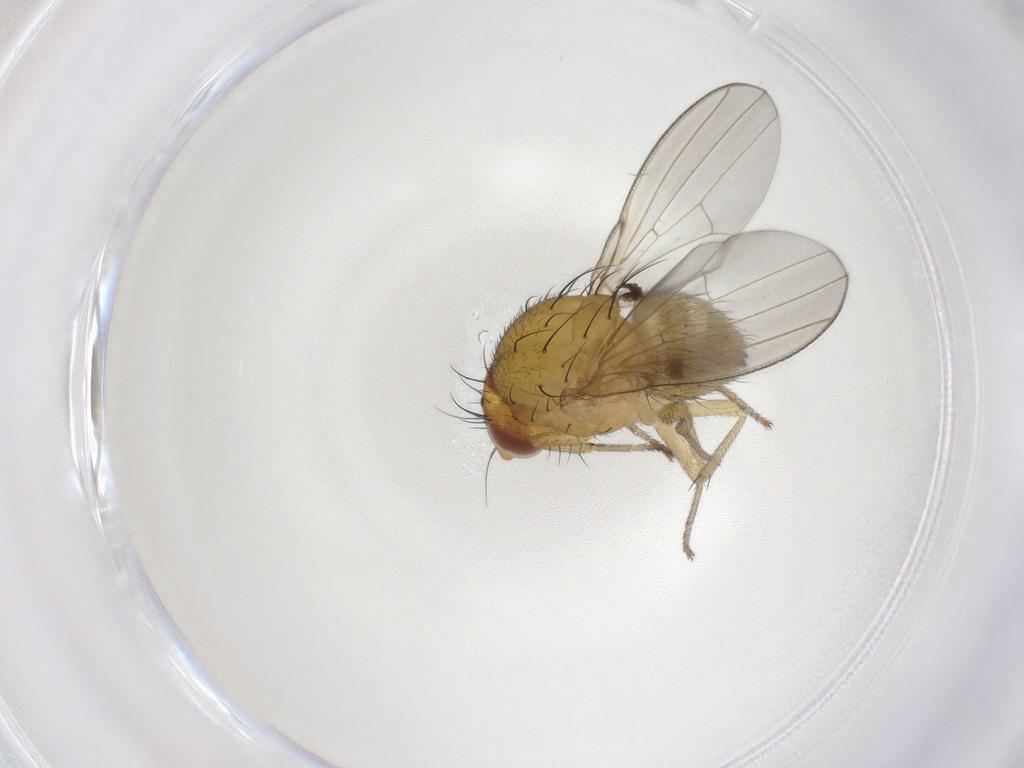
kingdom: Animalia
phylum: Arthropoda
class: Insecta
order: Diptera
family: Lauxaniidae
